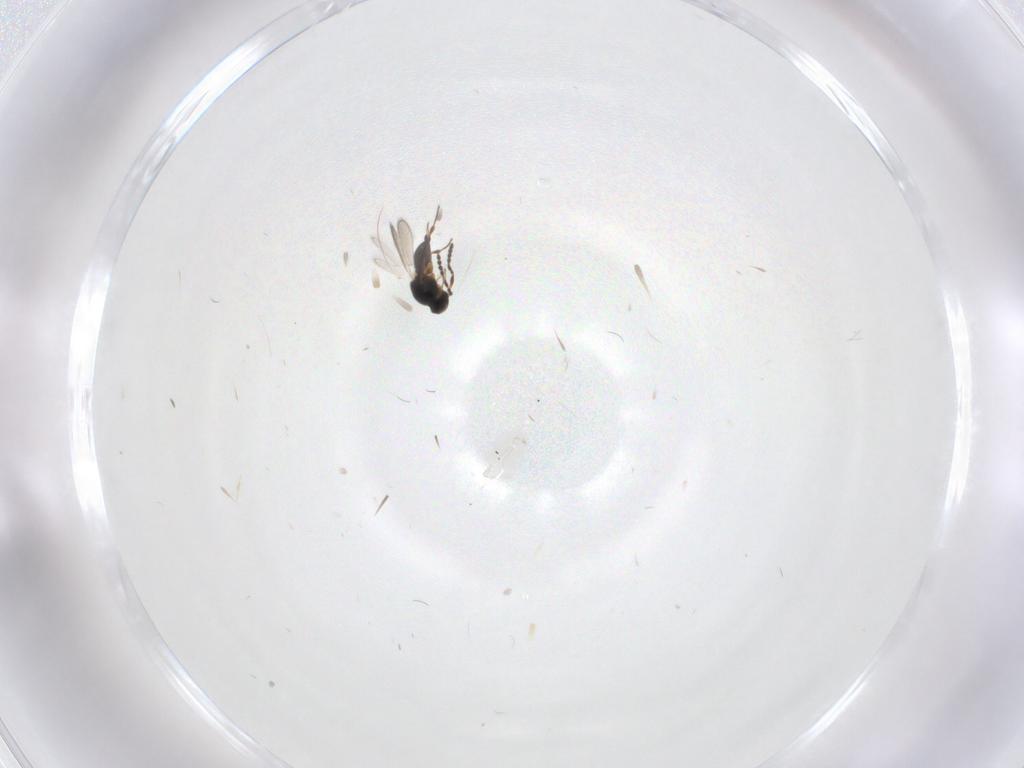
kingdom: Animalia
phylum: Arthropoda
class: Insecta
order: Hymenoptera
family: Platygastridae
